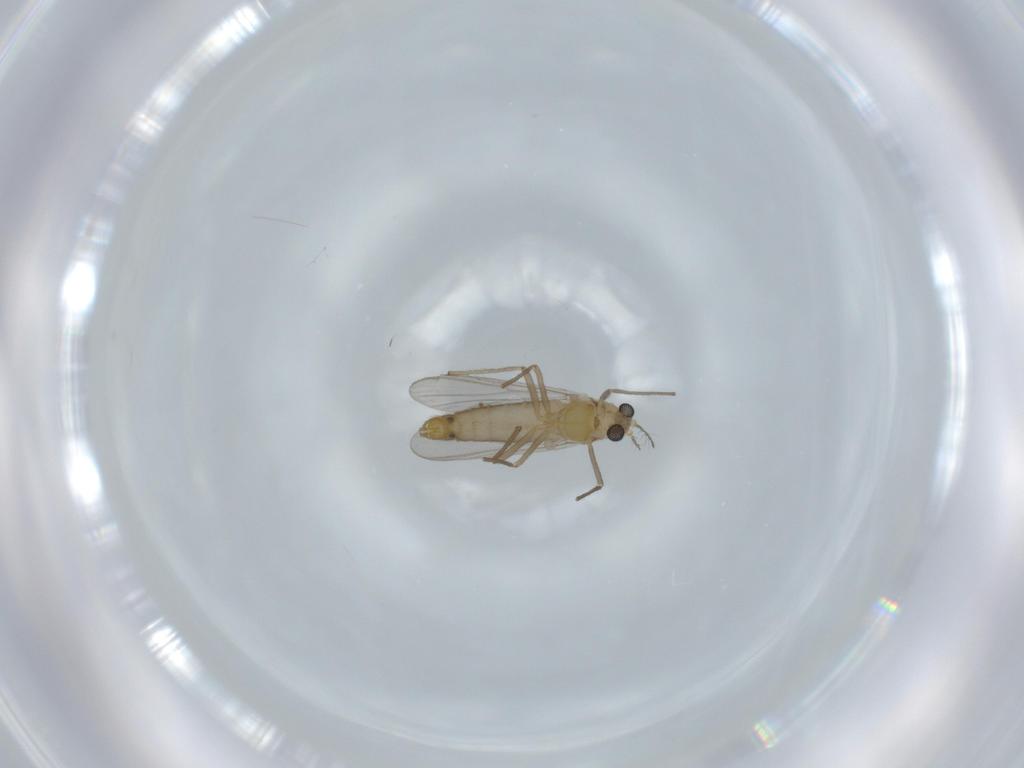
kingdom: Animalia
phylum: Arthropoda
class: Insecta
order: Diptera
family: Chironomidae
